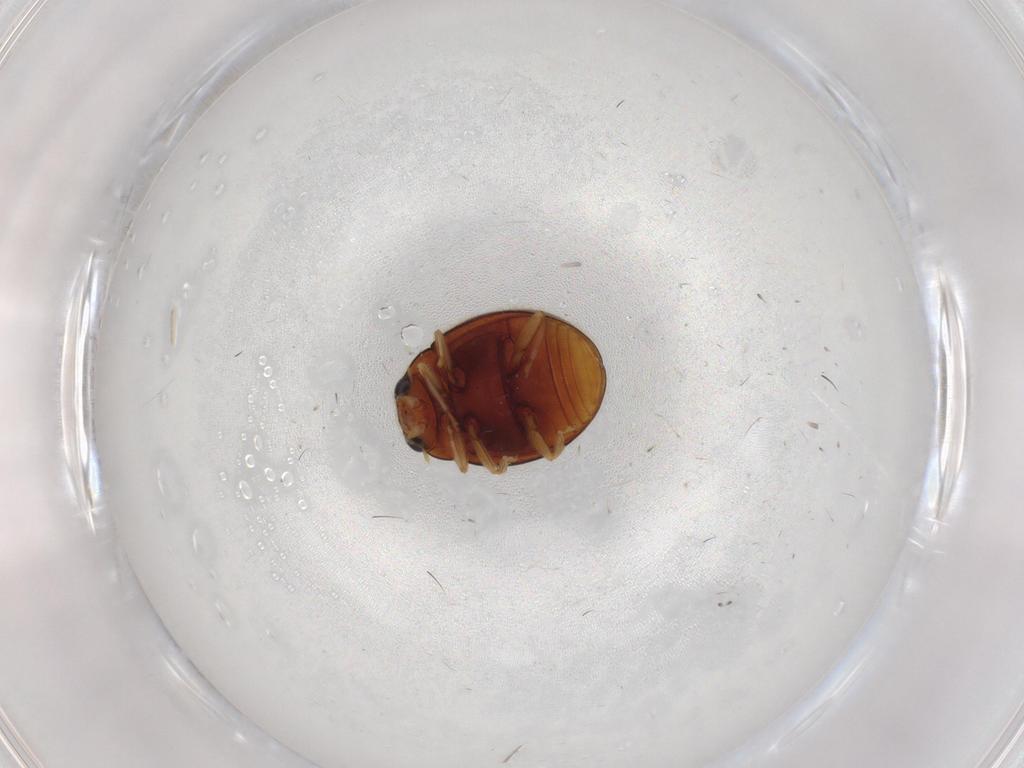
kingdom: Animalia
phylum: Arthropoda
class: Insecta
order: Coleoptera
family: Coccinellidae
